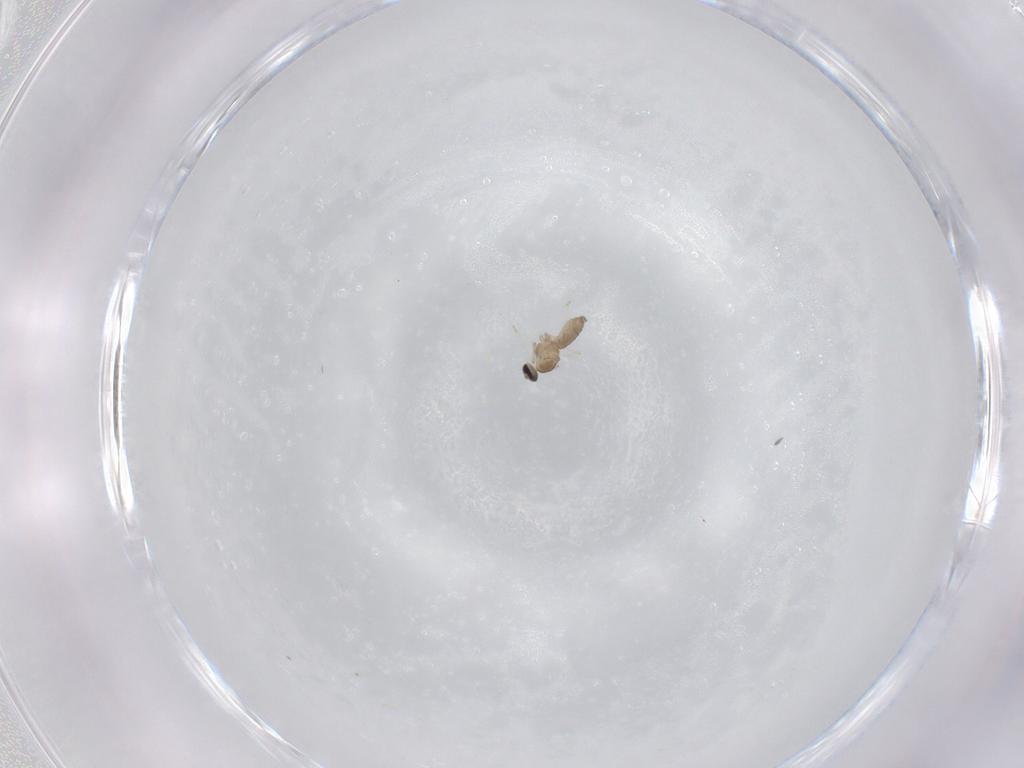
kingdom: Animalia
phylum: Arthropoda
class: Insecta
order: Diptera
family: Cecidomyiidae
